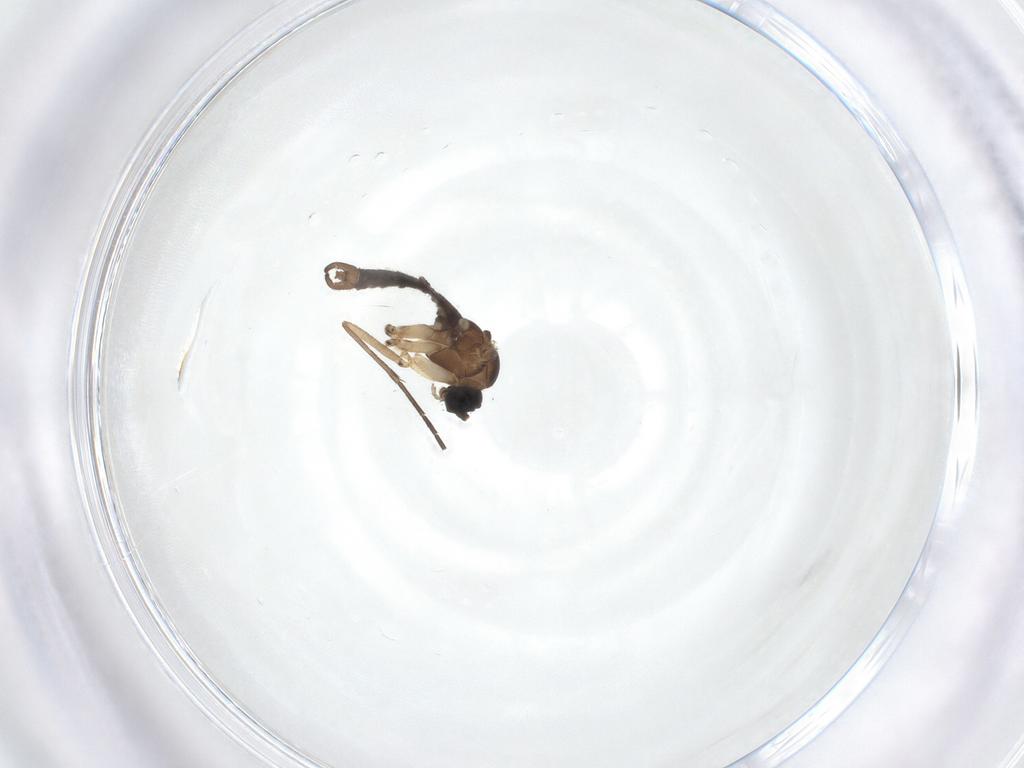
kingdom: Animalia
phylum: Arthropoda
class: Insecta
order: Diptera
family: Sciaridae
